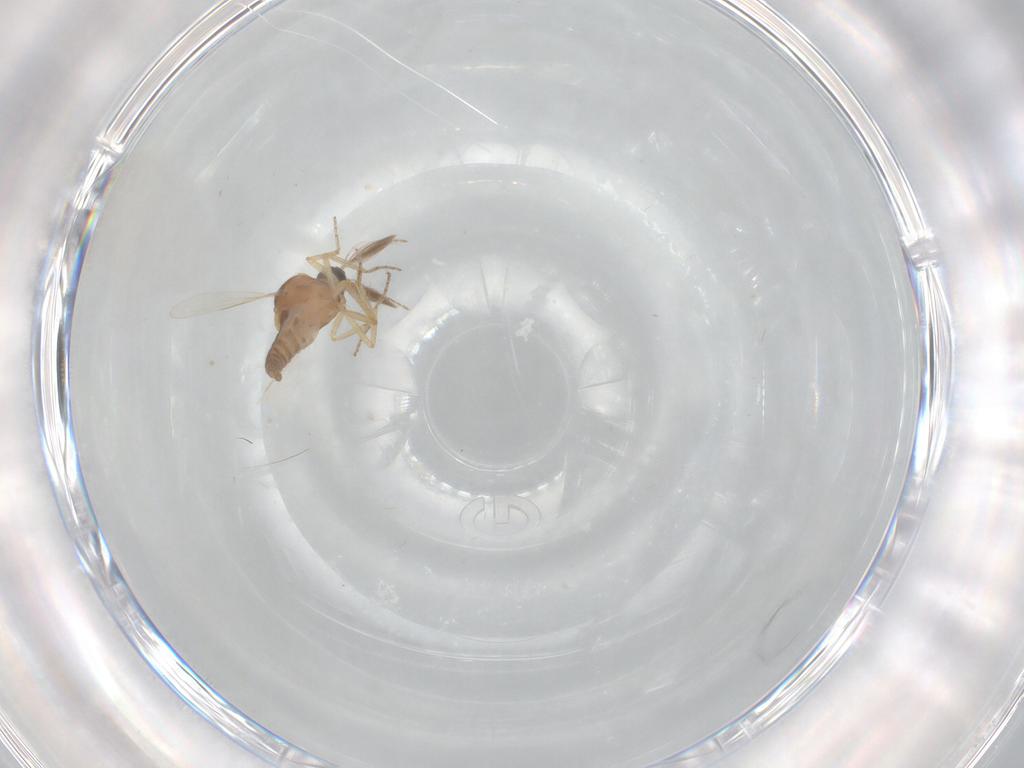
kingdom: Animalia
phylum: Arthropoda
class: Insecta
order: Diptera
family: Ceratopogonidae
